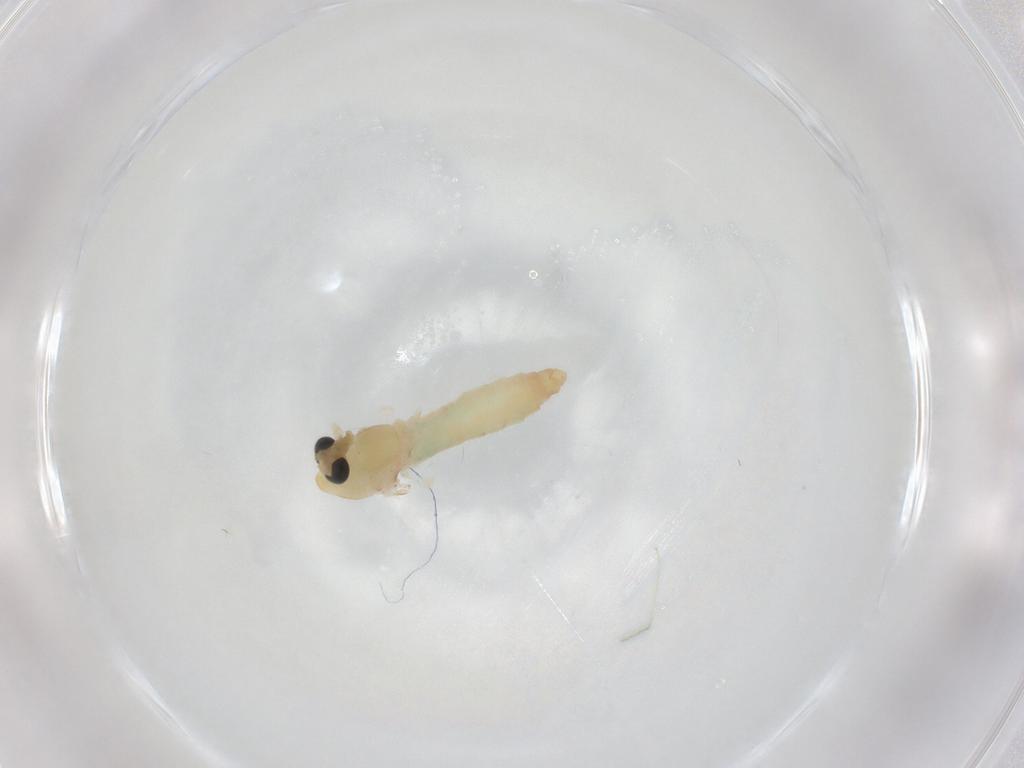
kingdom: Animalia
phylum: Arthropoda
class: Insecta
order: Diptera
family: Chironomidae
